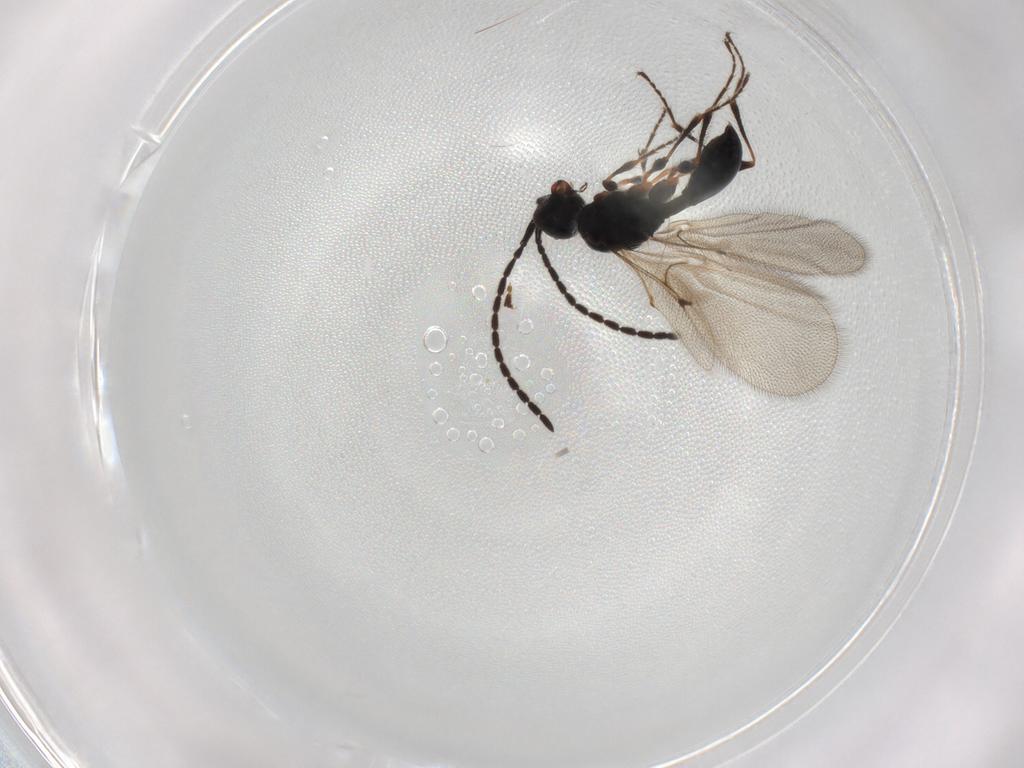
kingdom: Animalia
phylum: Arthropoda
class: Insecta
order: Hymenoptera
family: Diapriidae
